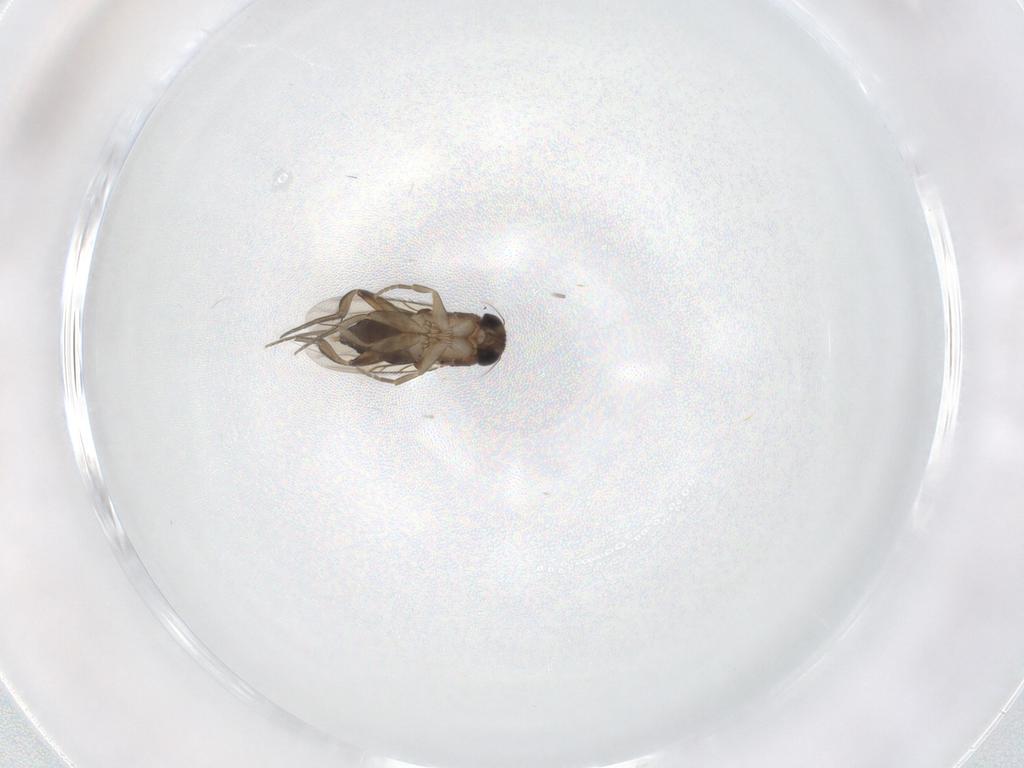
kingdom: Animalia
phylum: Arthropoda
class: Insecta
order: Diptera
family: Phoridae
